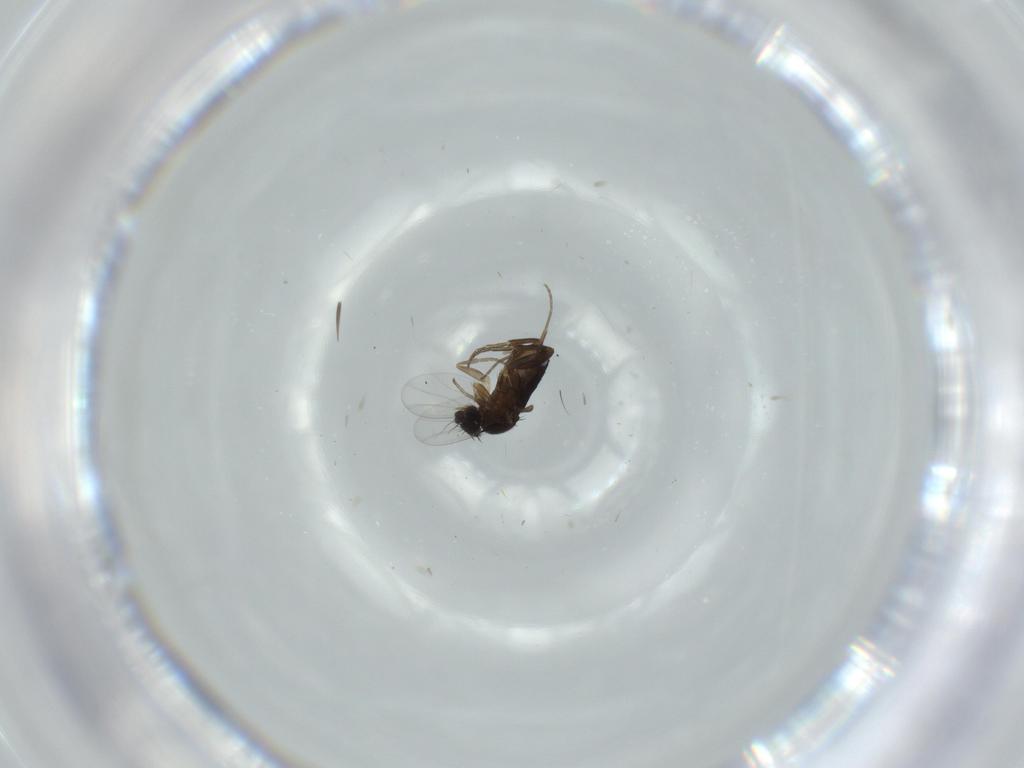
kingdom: Animalia
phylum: Arthropoda
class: Insecta
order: Diptera
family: Phoridae
